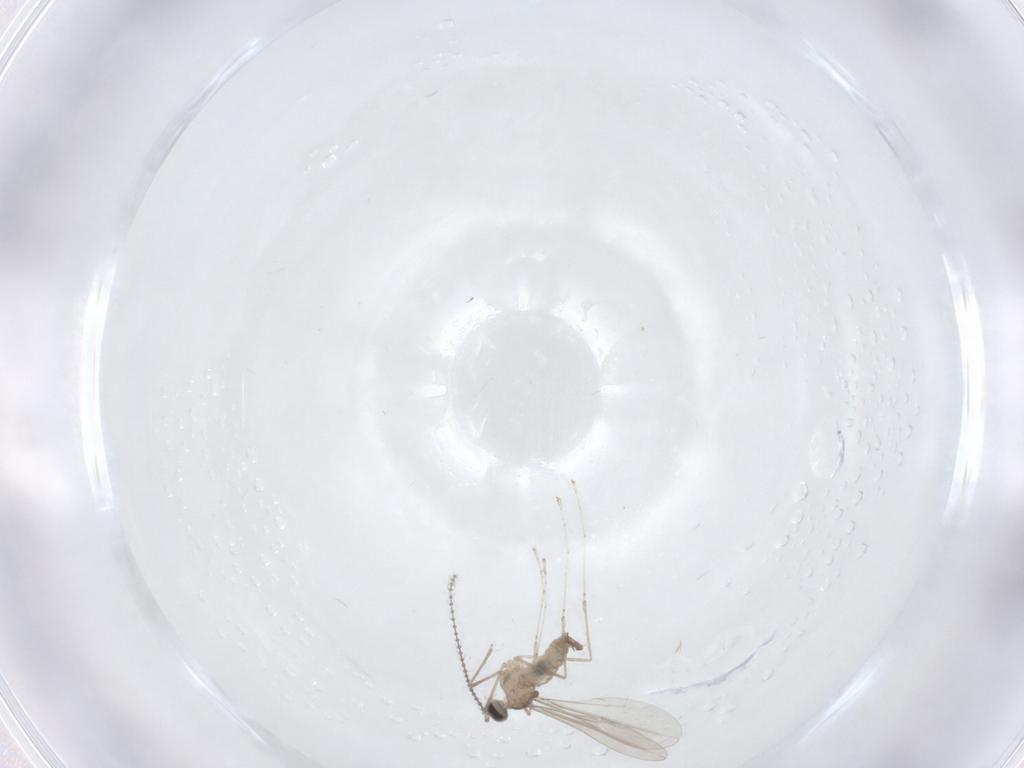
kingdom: Animalia
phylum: Arthropoda
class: Insecta
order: Diptera
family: Cecidomyiidae
